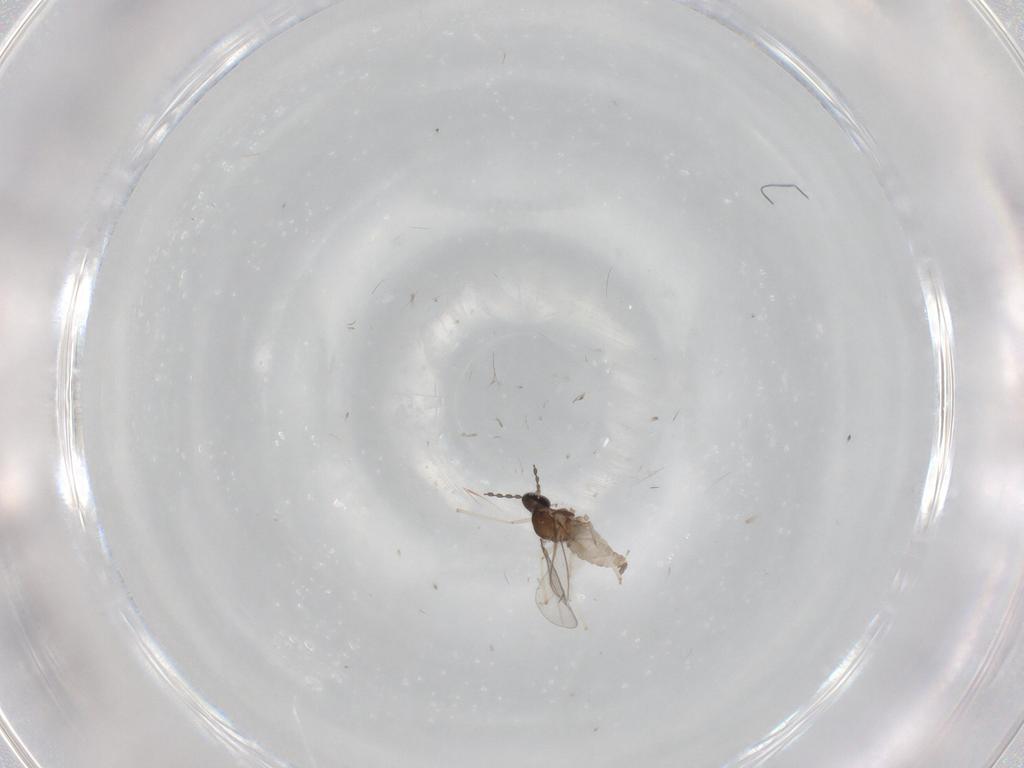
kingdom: Animalia
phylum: Arthropoda
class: Insecta
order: Diptera
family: Cecidomyiidae
